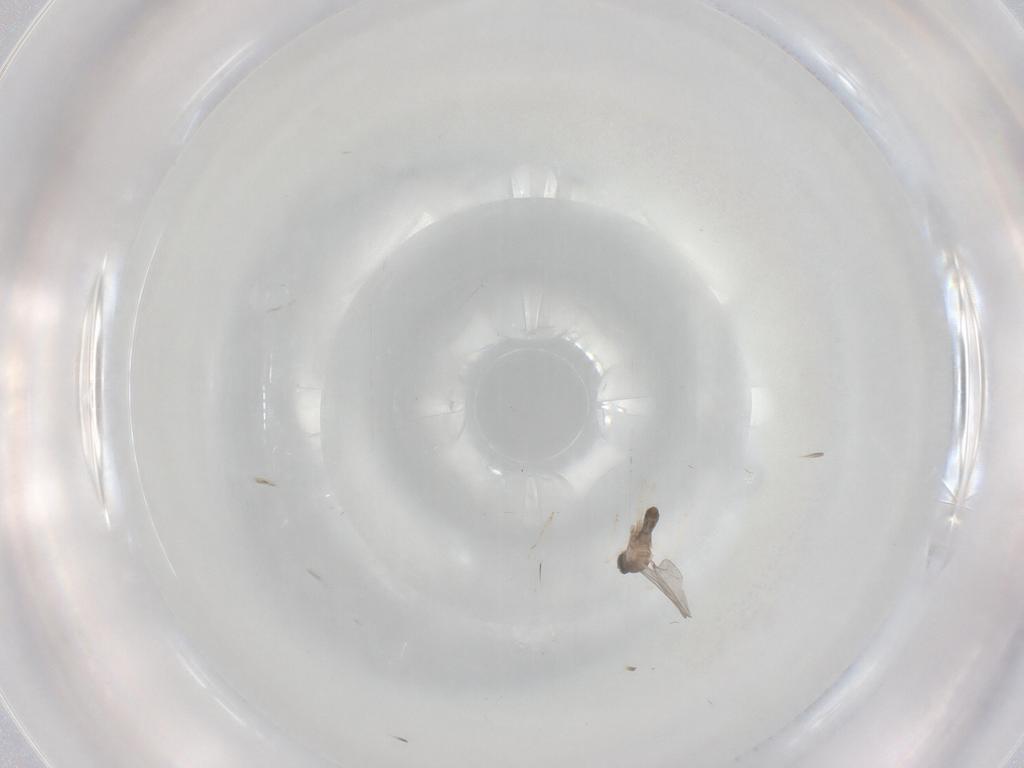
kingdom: Animalia
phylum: Arthropoda
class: Insecta
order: Diptera
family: Cecidomyiidae
